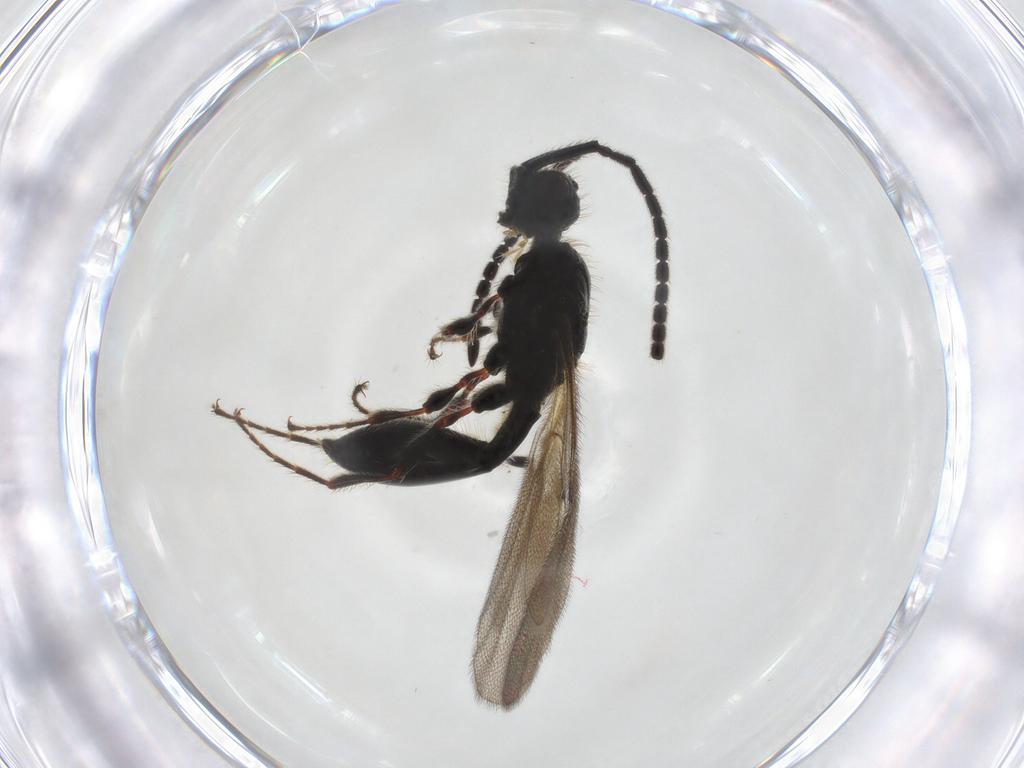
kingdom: Animalia
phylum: Arthropoda
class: Insecta
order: Hymenoptera
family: Diapriidae
